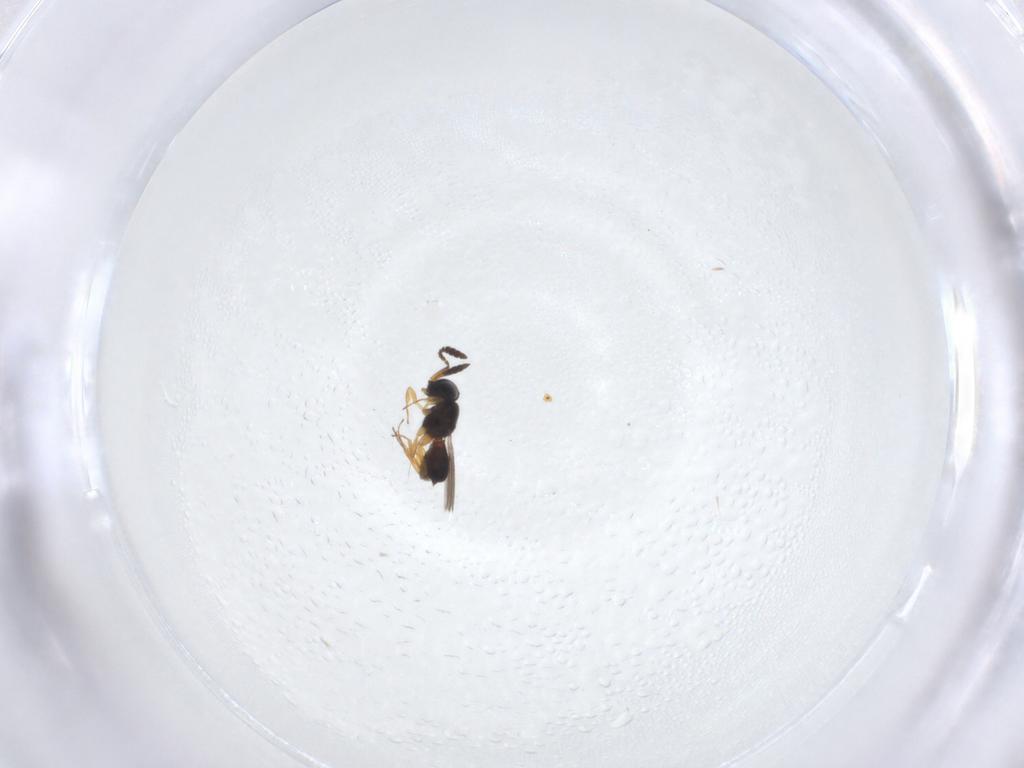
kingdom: Animalia
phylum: Arthropoda
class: Insecta
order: Hymenoptera
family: Scelionidae
